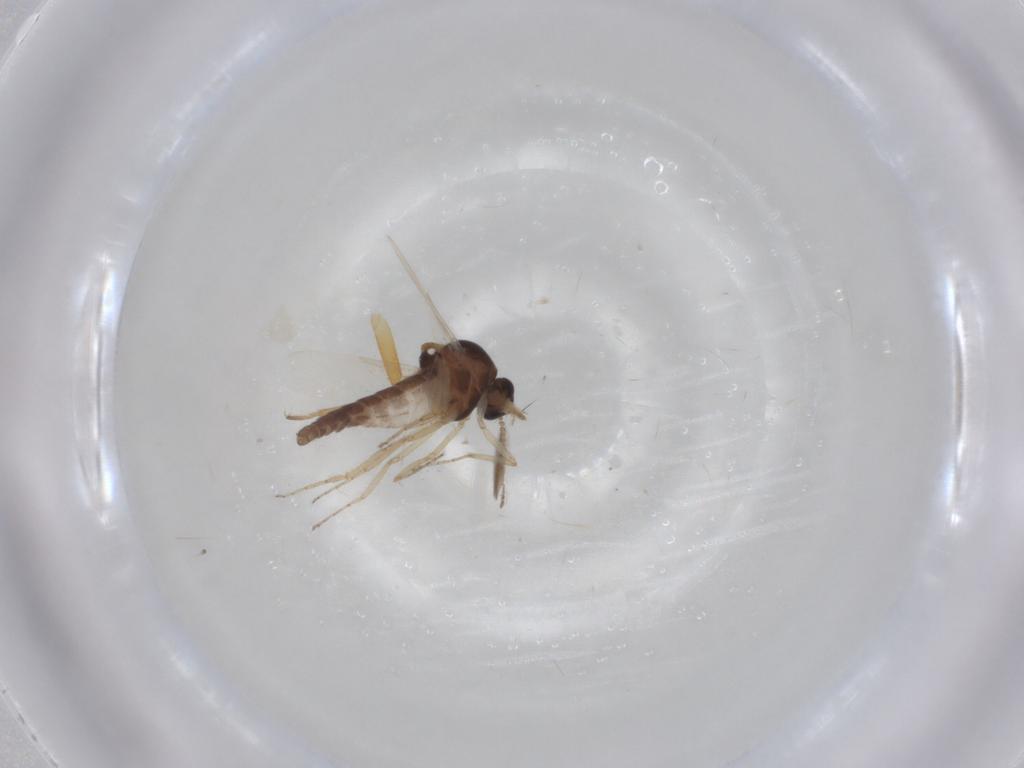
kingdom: Animalia
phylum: Arthropoda
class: Insecta
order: Diptera
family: Ceratopogonidae
